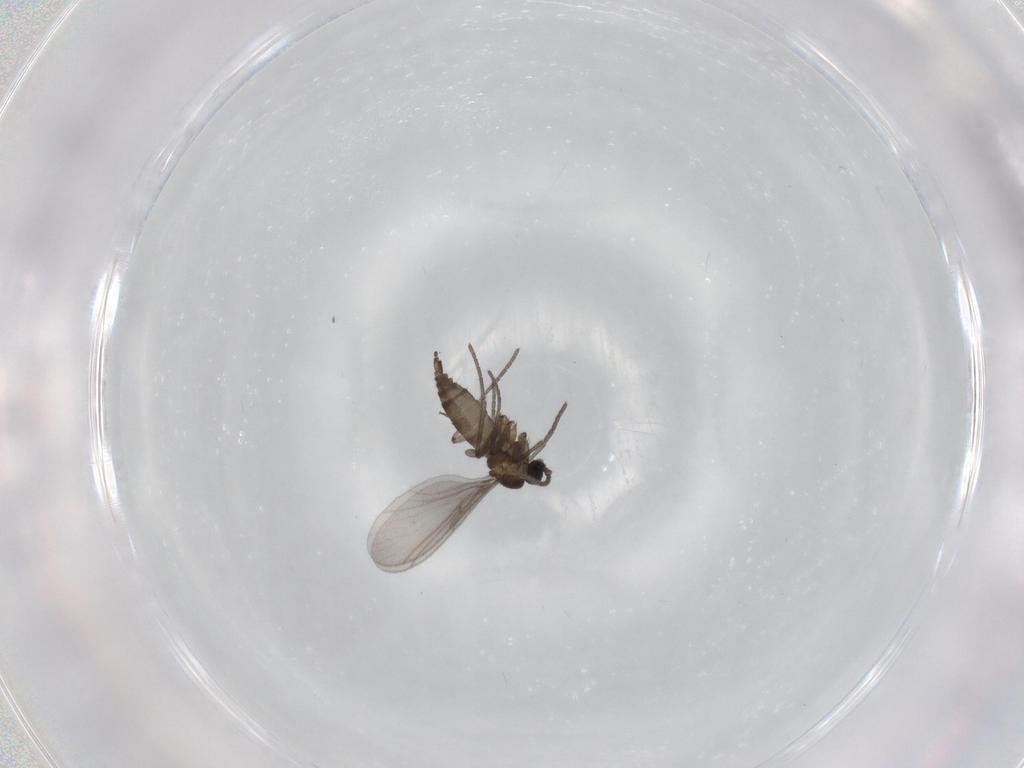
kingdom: Animalia
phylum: Arthropoda
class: Insecta
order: Diptera
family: Sciaridae
